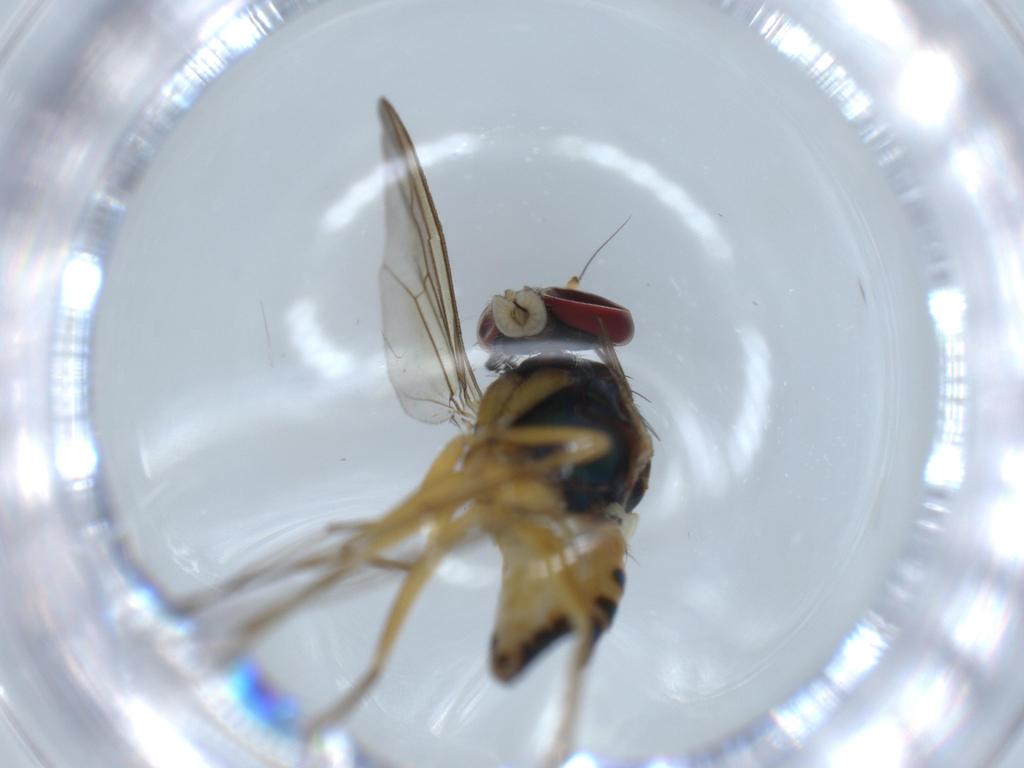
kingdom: Animalia
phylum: Arthropoda
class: Insecta
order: Diptera
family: Dolichopodidae
